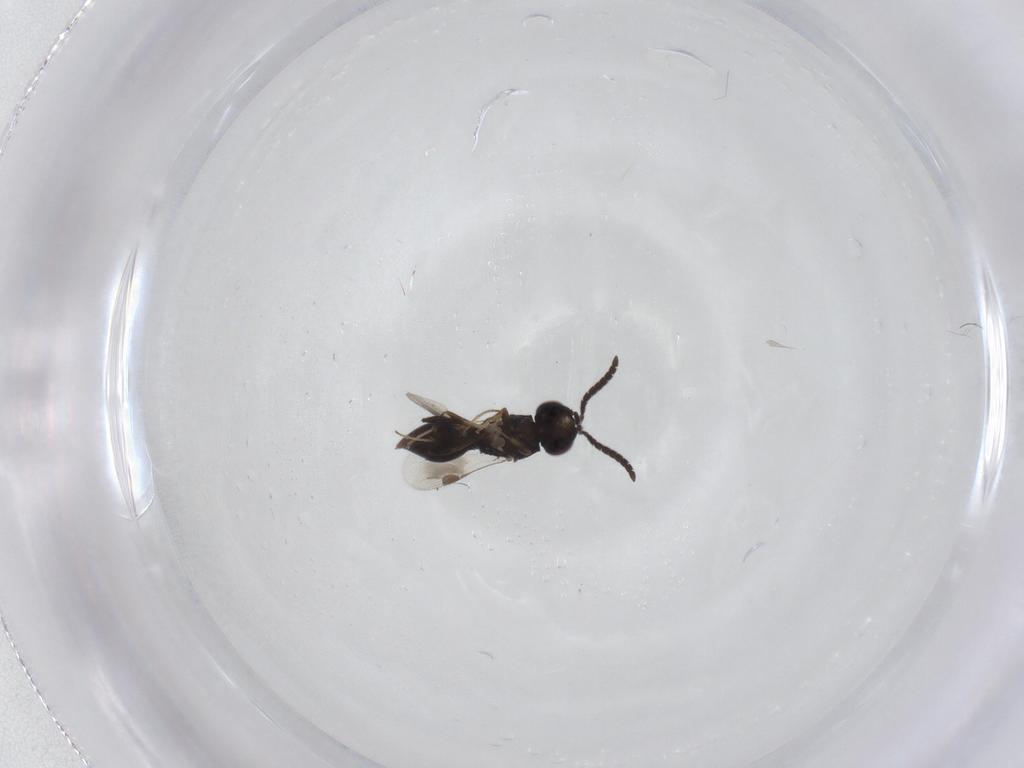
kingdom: Animalia
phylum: Arthropoda
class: Insecta
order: Hymenoptera
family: Megaspilidae
